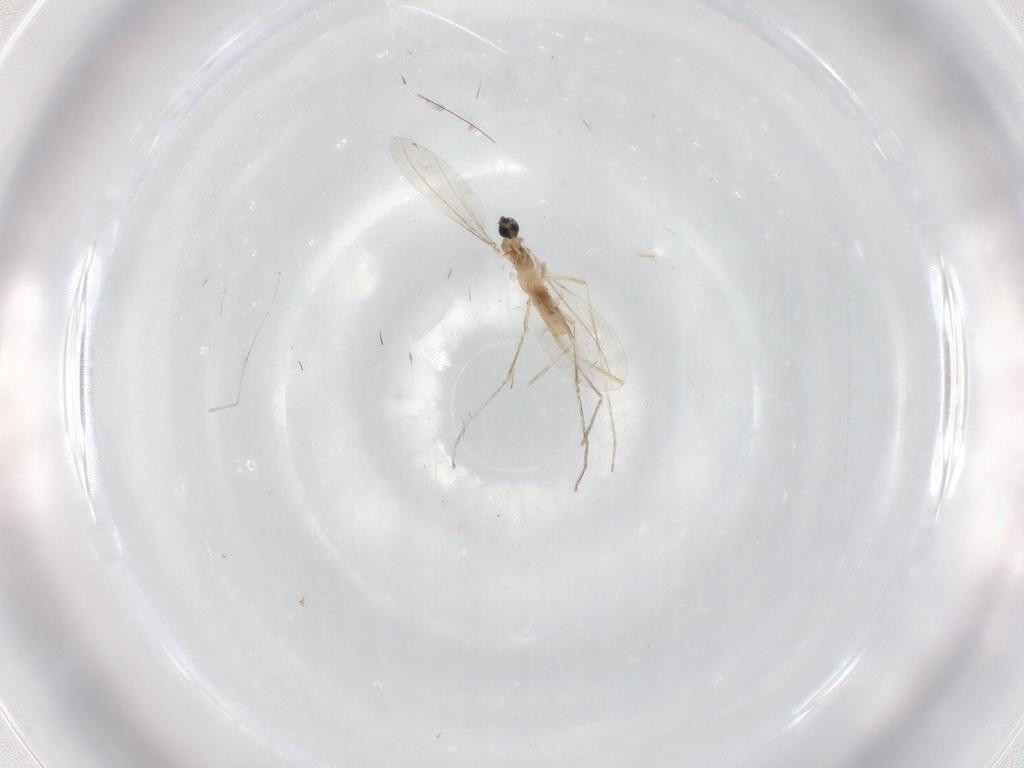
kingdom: Animalia
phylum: Arthropoda
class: Insecta
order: Diptera
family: Cecidomyiidae
